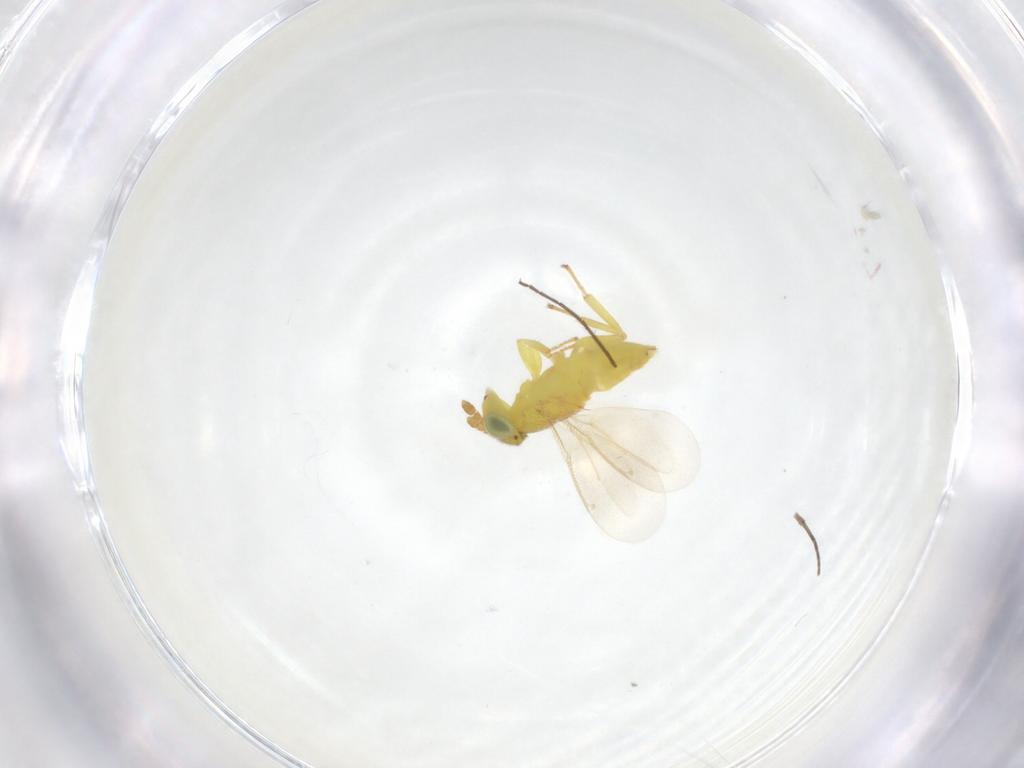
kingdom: Animalia
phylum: Arthropoda
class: Insecta
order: Hymenoptera
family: Aphelinidae
